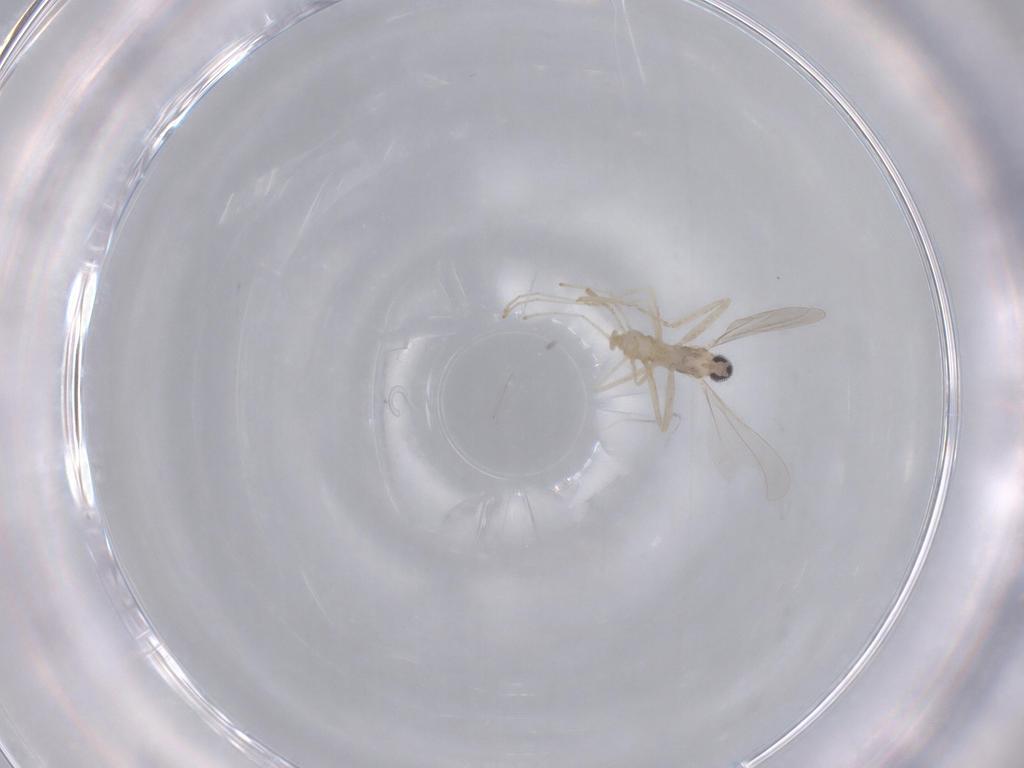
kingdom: Animalia
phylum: Arthropoda
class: Insecta
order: Diptera
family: Cecidomyiidae
